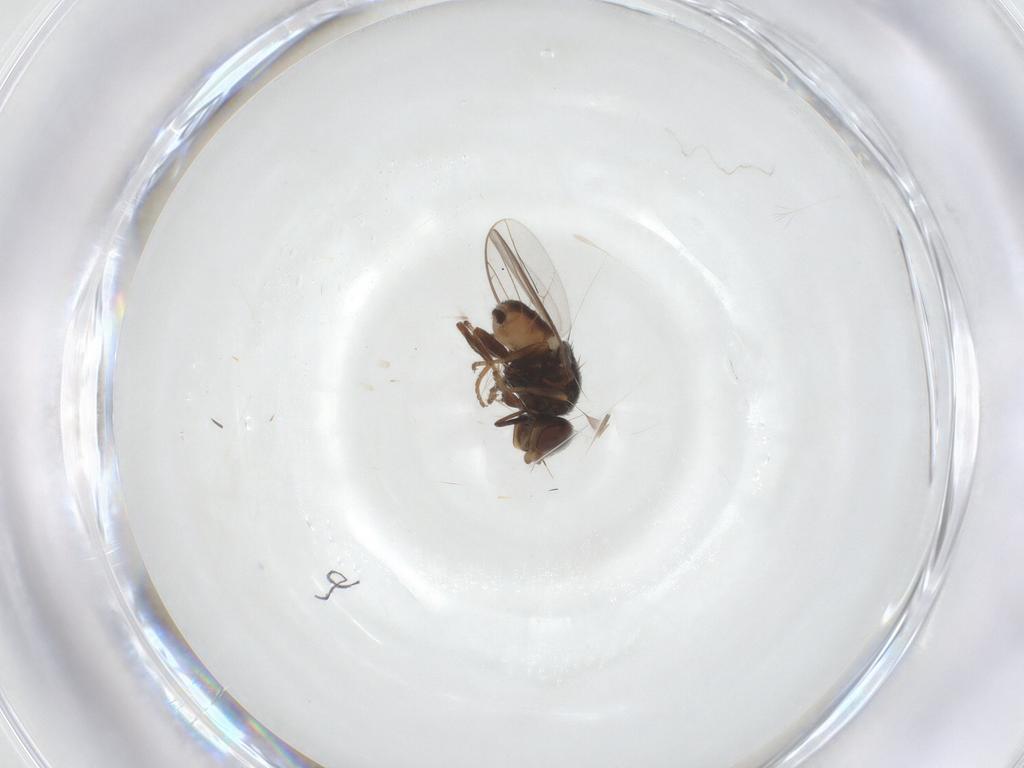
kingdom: Animalia
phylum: Arthropoda
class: Insecta
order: Diptera
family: Chloropidae
